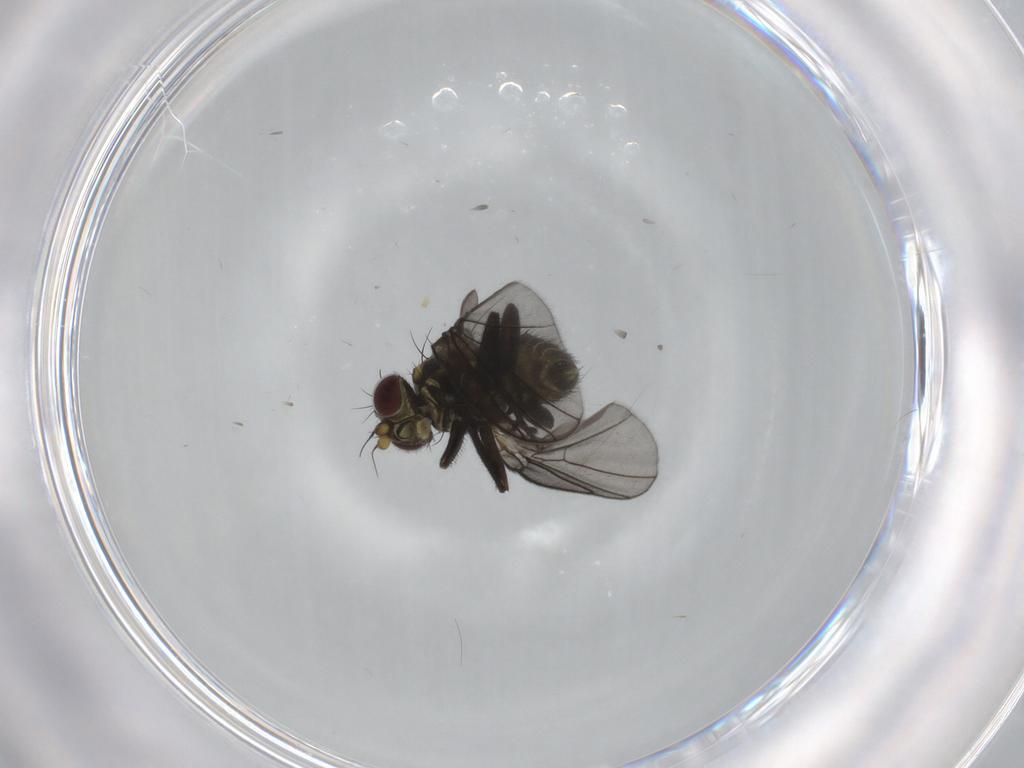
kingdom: Animalia
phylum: Arthropoda
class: Insecta
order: Diptera
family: Agromyzidae
